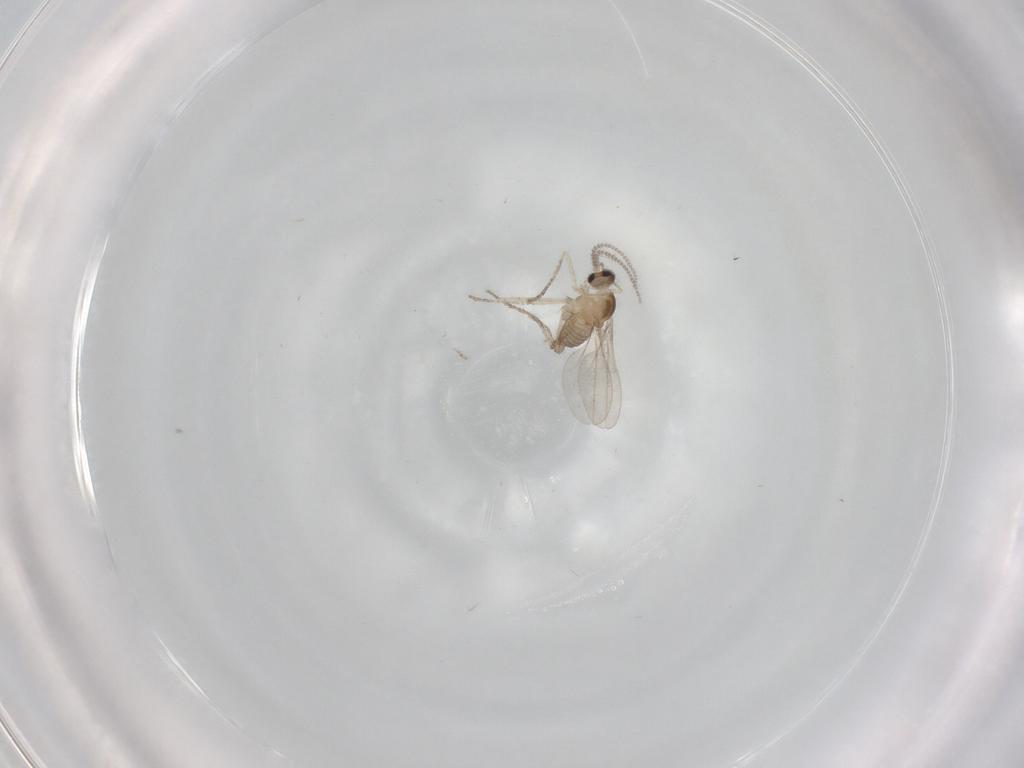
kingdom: Animalia
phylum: Arthropoda
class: Insecta
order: Diptera
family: Cecidomyiidae
